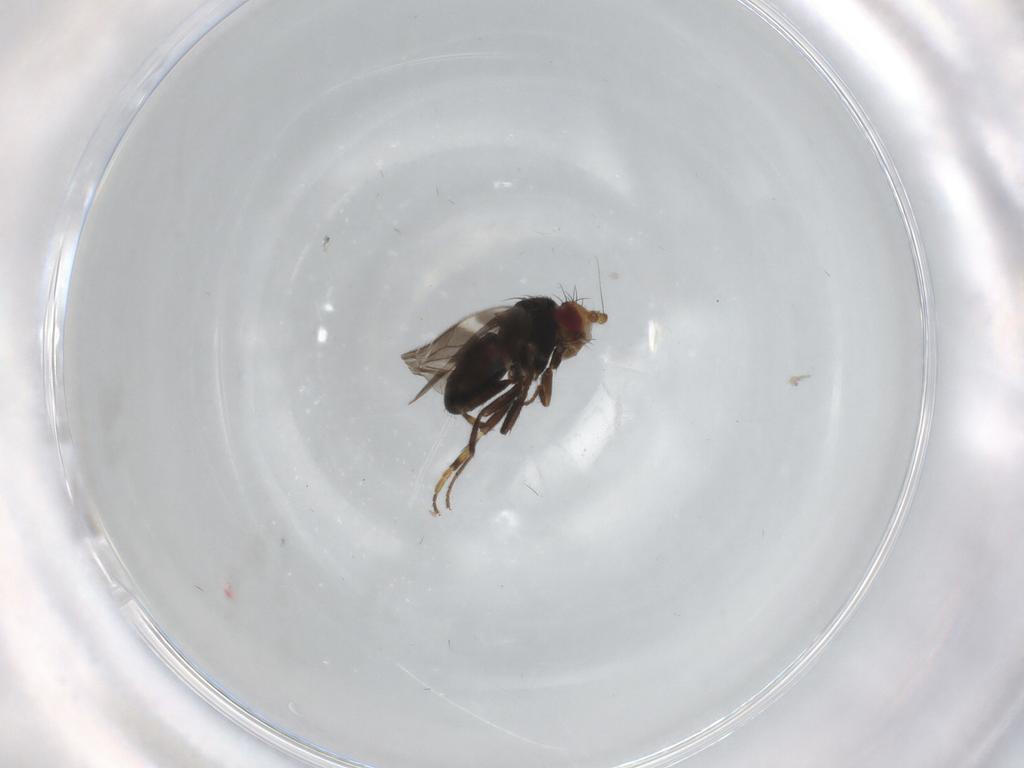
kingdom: Animalia
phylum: Arthropoda
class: Insecta
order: Diptera
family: Sphaeroceridae
